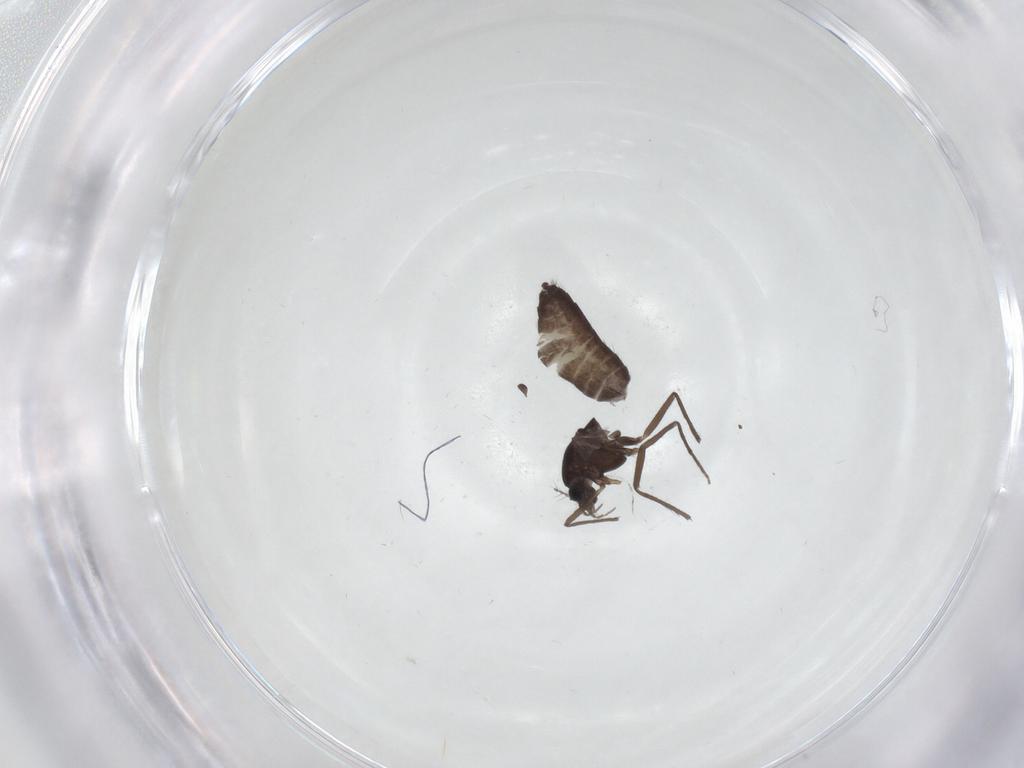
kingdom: Animalia
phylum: Arthropoda
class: Insecta
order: Diptera
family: Chironomidae
